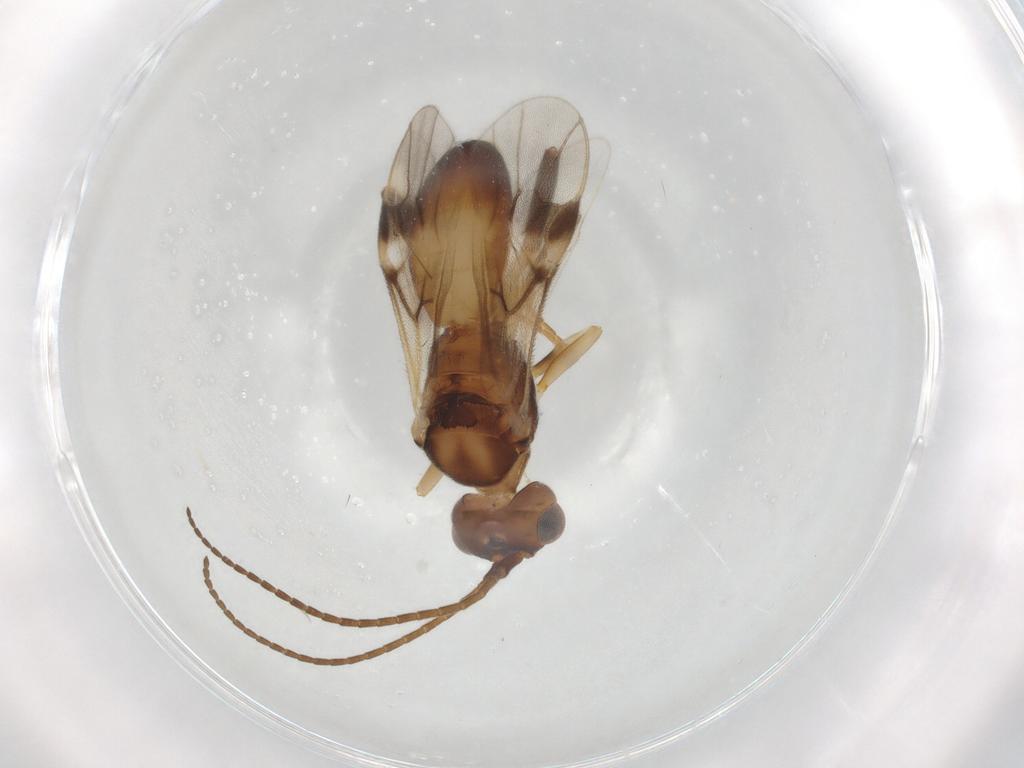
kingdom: Animalia
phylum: Arthropoda
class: Insecta
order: Hymenoptera
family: Braconidae
